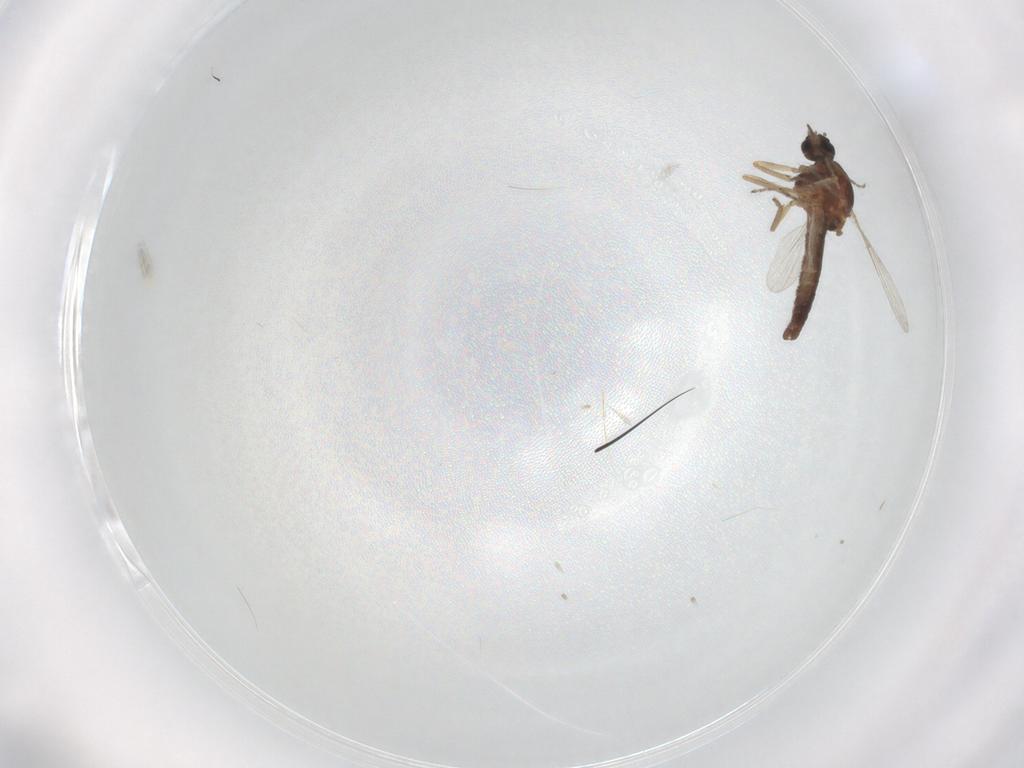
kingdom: Animalia
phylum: Arthropoda
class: Insecta
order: Diptera
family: Ceratopogonidae
